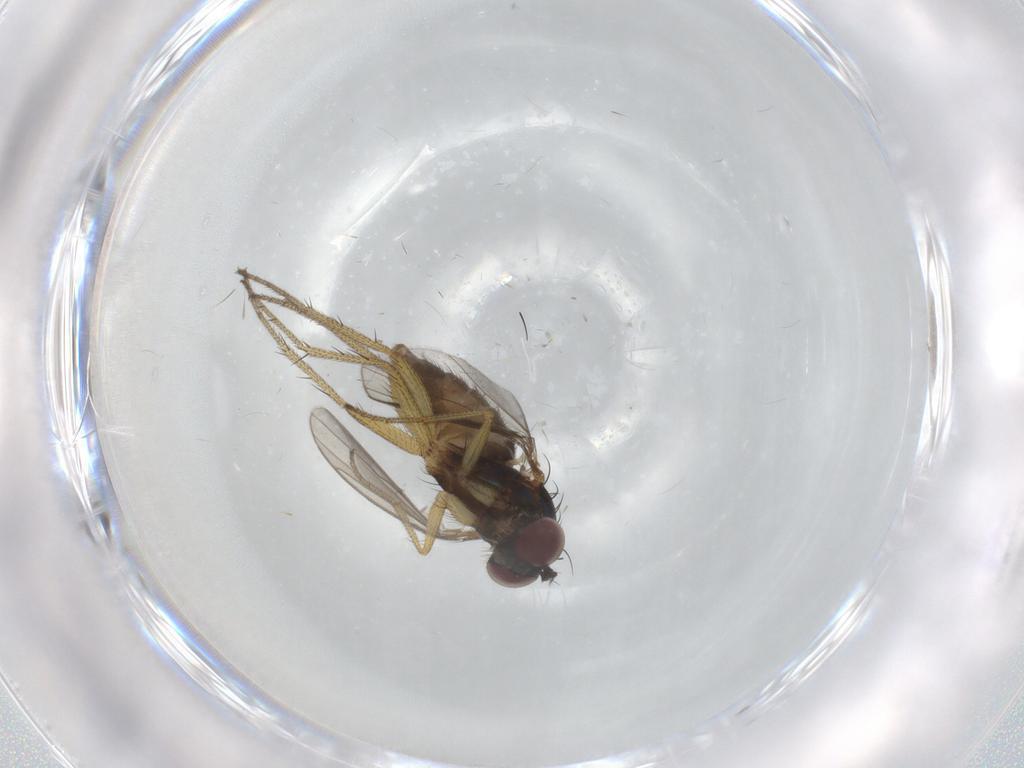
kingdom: Animalia
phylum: Arthropoda
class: Insecta
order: Diptera
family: Dolichopodidae
